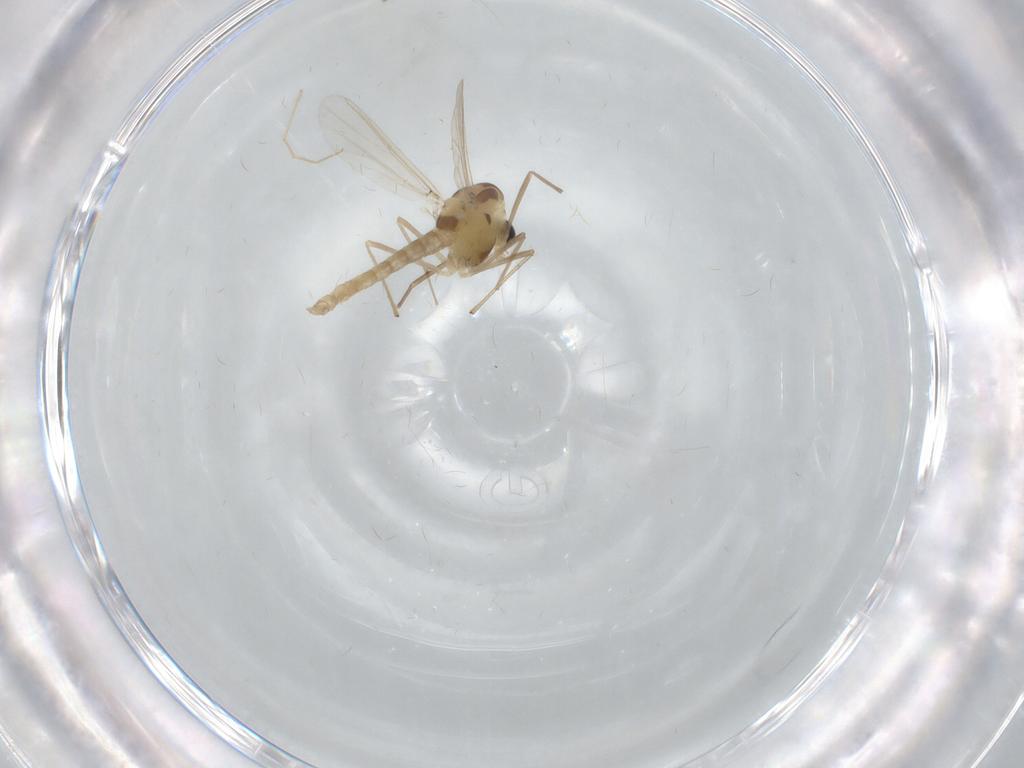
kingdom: Animalia
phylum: Arthropoda
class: Insecta
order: Diptera
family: Chironomidae
